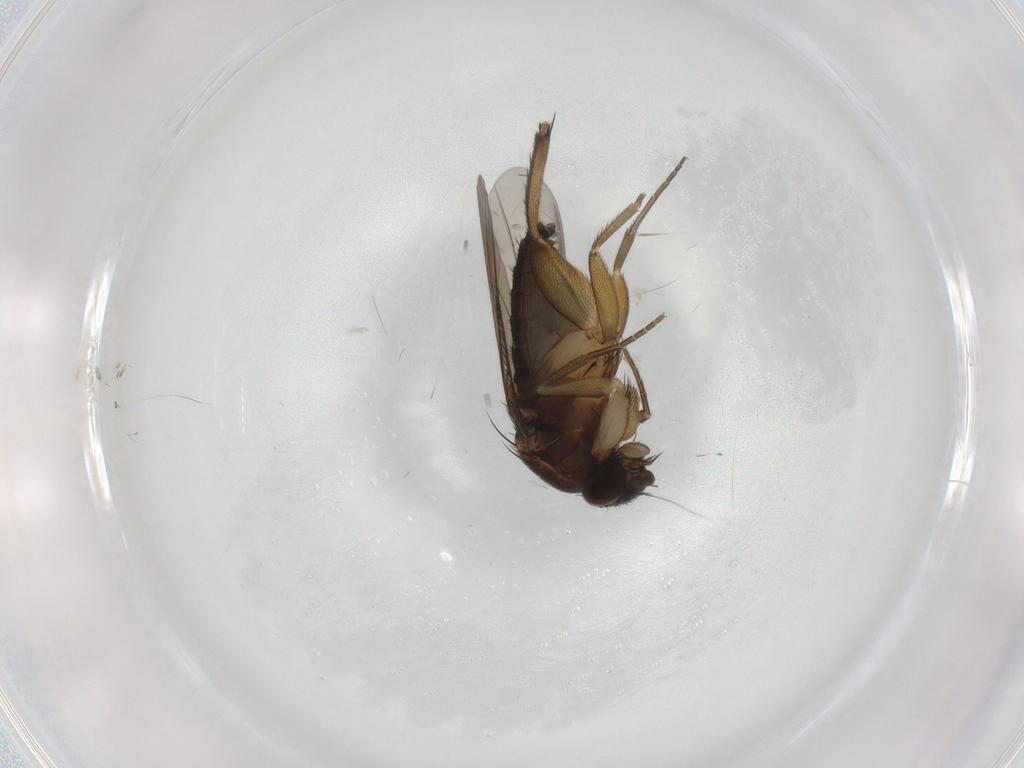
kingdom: Animalia
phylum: Arthropoda
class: Insecta
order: Diptera
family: Phoridae
